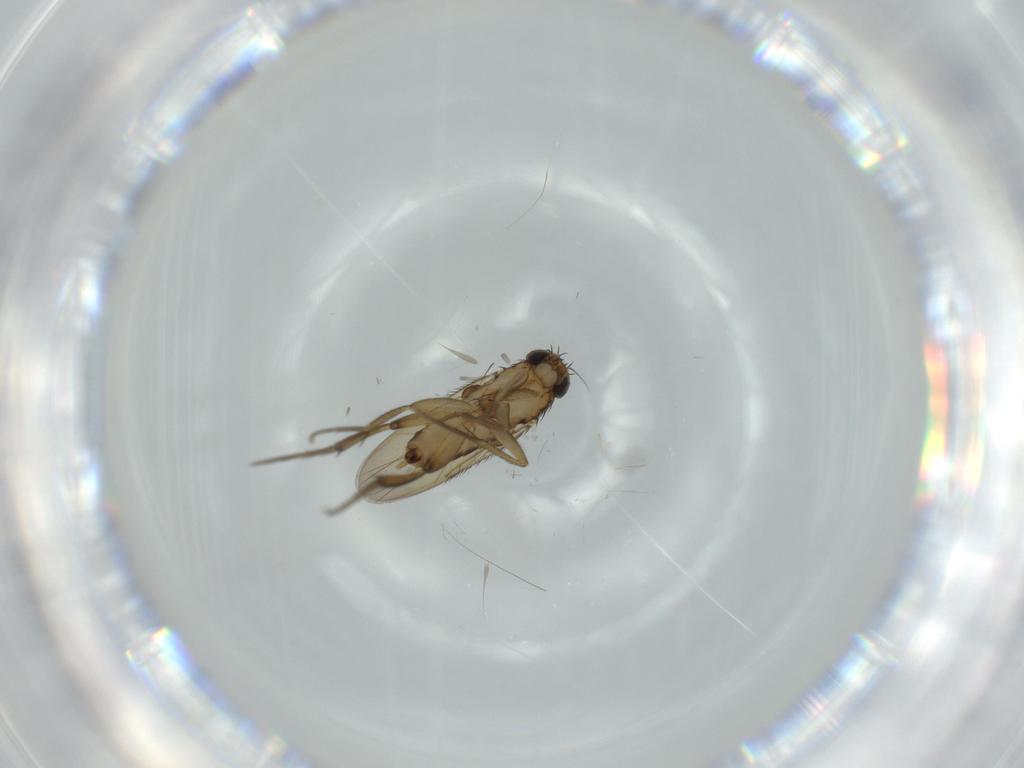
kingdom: Animalia
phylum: Arthropoda
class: Insecta
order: Diptera
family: Phoridae
